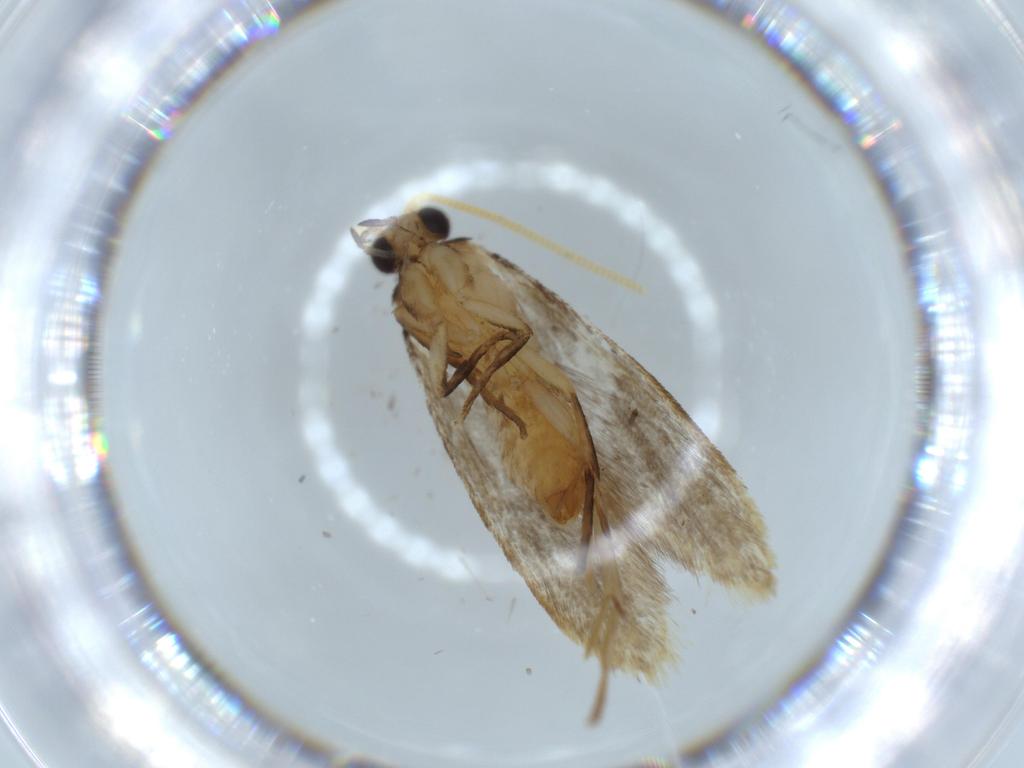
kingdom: Animalia
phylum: Arthropoda
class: Insecta
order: Lepidoptera
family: Tineidae
